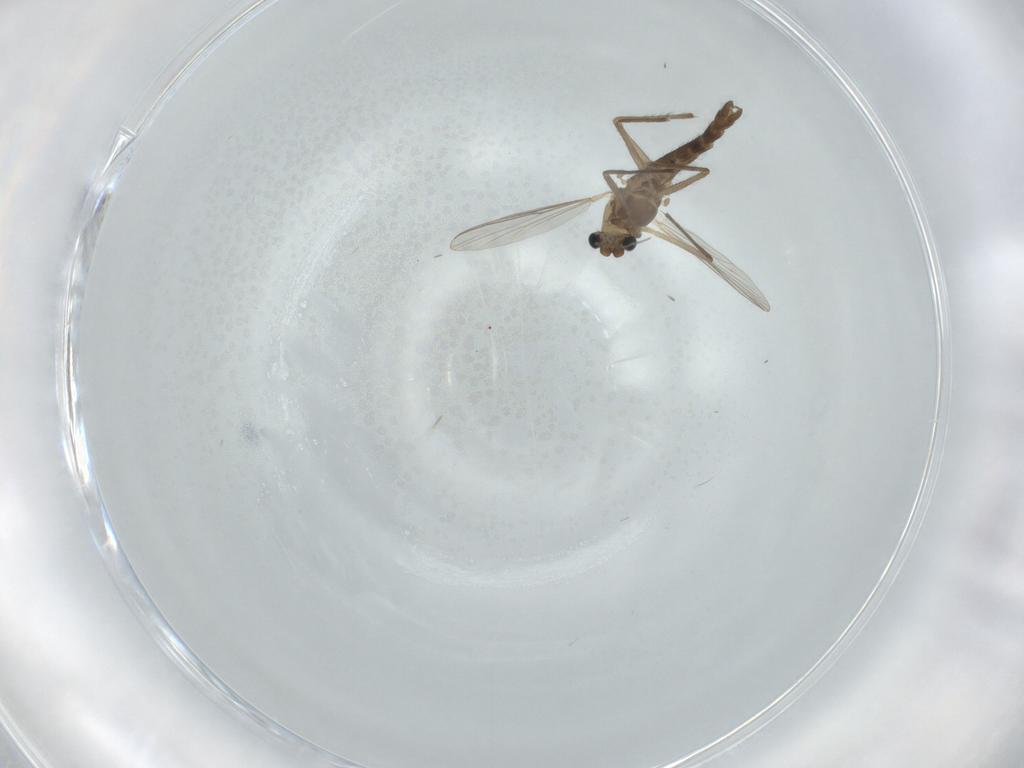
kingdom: Animalia
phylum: Arthropoda
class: Insecta
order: Diptera
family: Chironomidae
